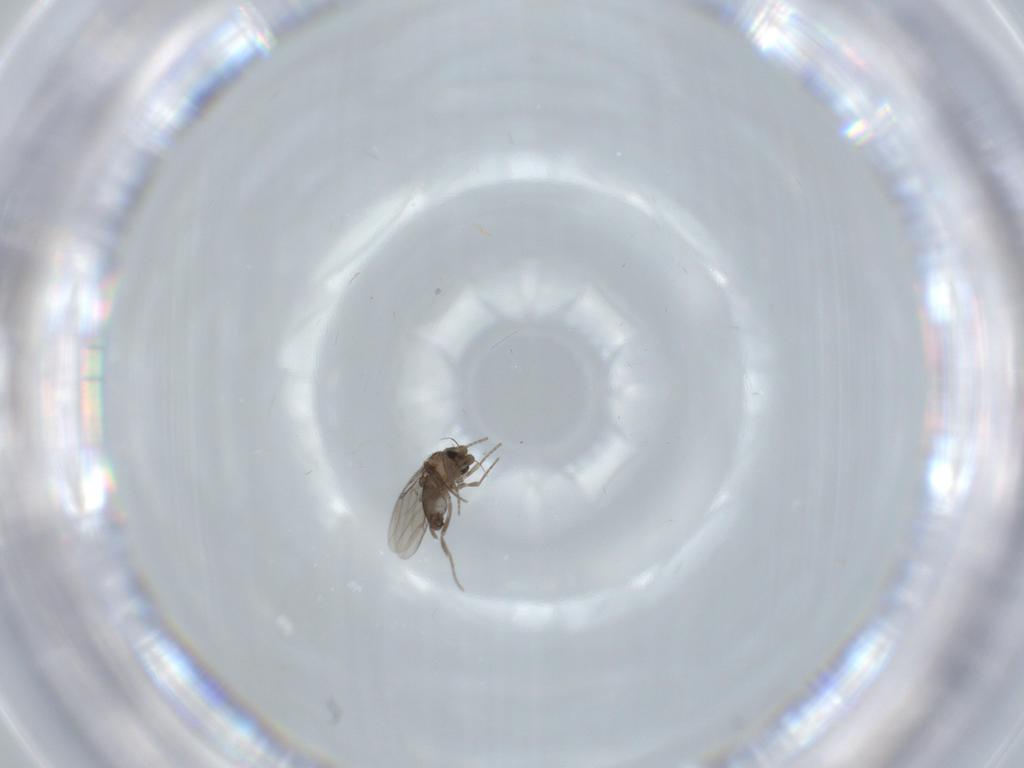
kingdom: Animalia
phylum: Arthropoda
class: Insecta
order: Diptera
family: Ceratopogonidae
